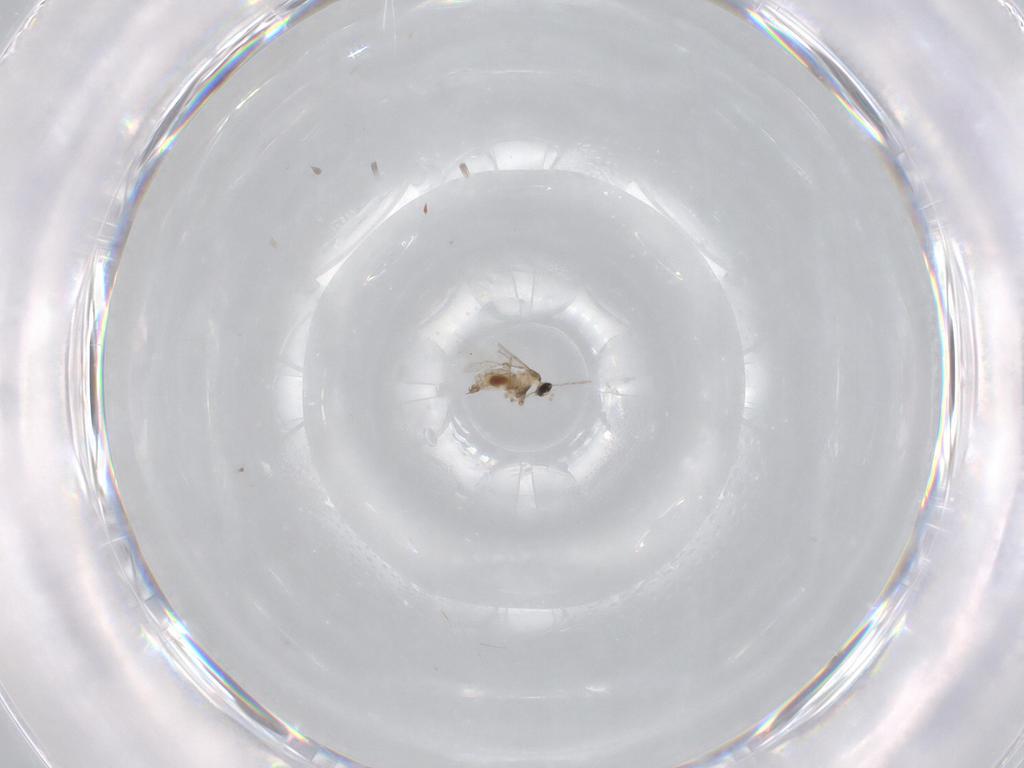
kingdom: Animalia
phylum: Arthropoda
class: Insecta
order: Diptera
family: Cecidomyiidae
